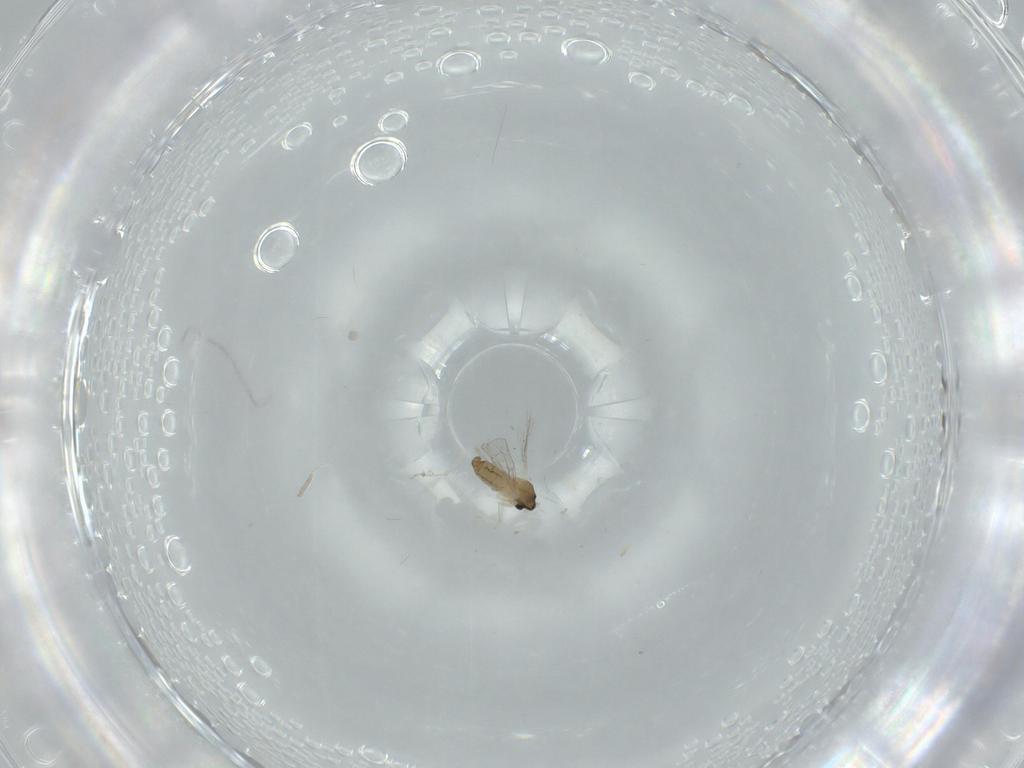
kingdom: Animalia
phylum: Arthropoda
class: Insecta
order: Diptera
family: Cecidomyiidae
